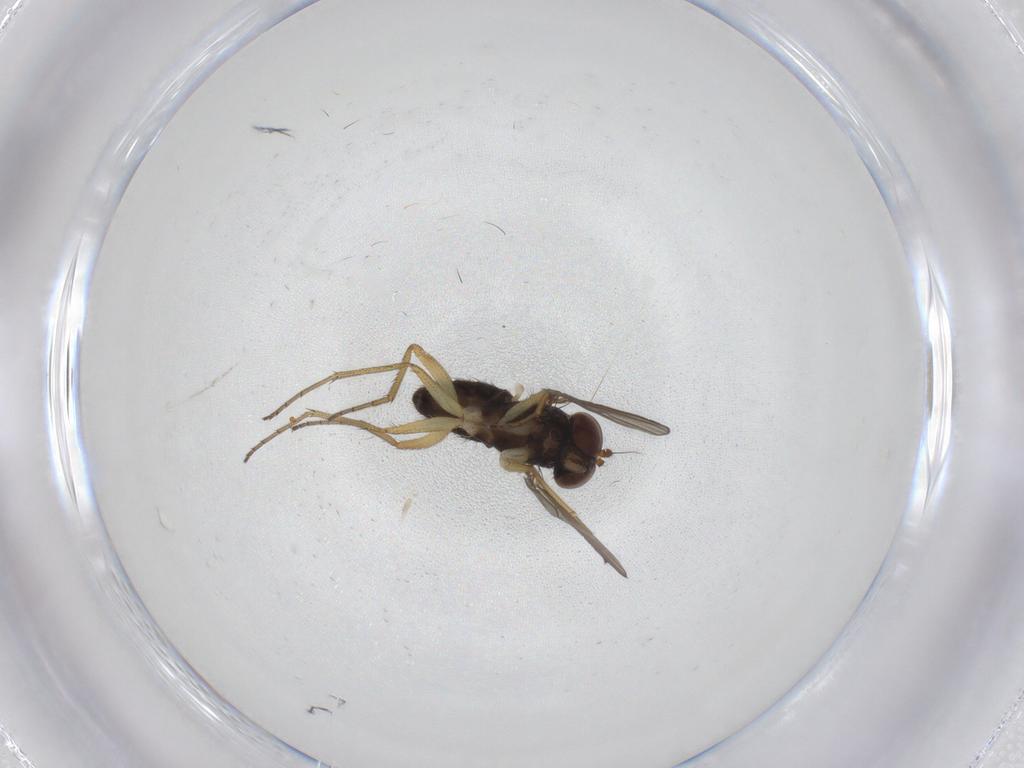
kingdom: Animalia
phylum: Arthropoda
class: Insecta
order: Diptera
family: Dolichopodidae
